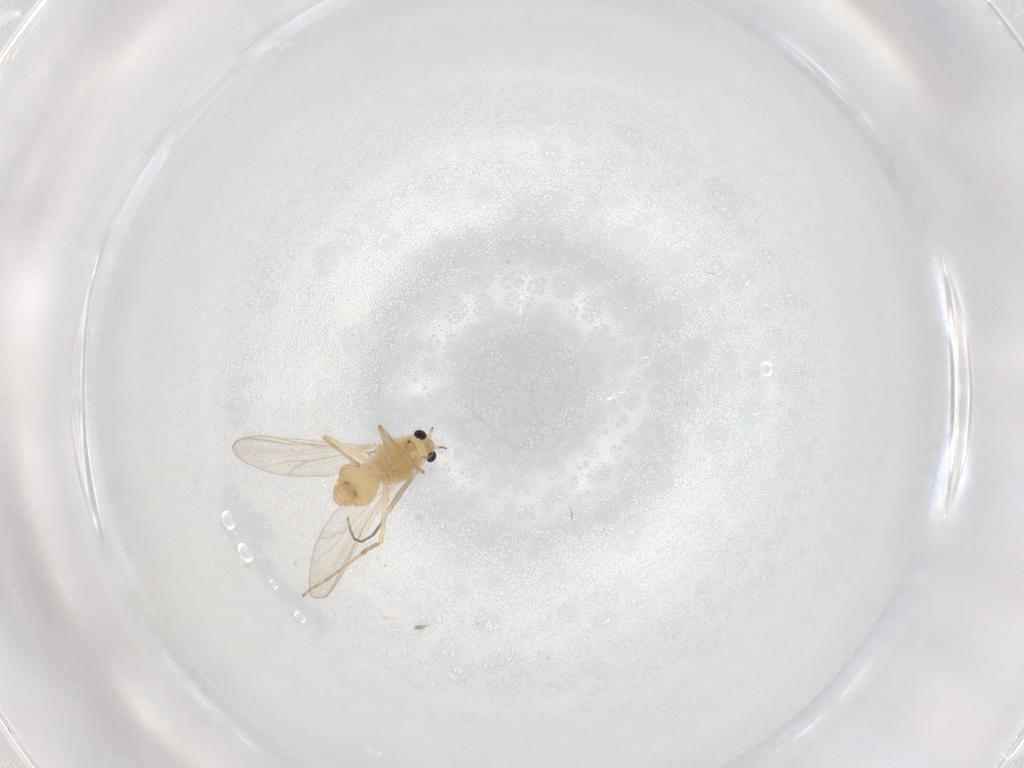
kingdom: Animalia
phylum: Arthropoda
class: Insecta
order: Diptera
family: Chironomidae
